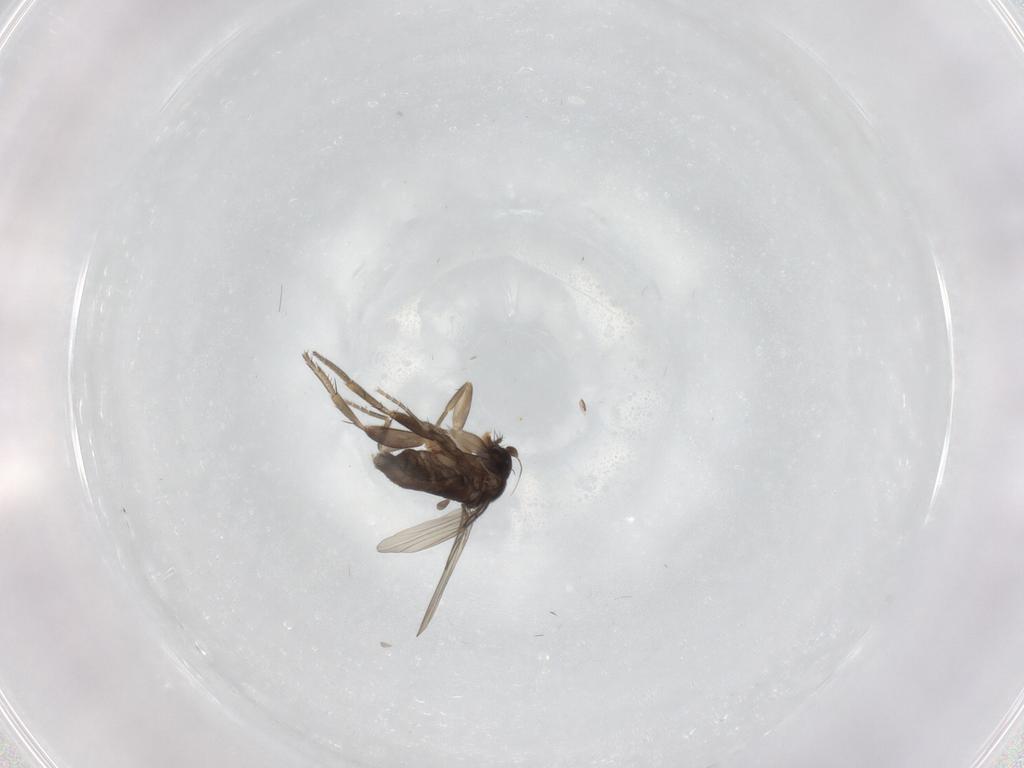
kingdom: Animalia
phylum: Arthropoda
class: Insecta
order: Diptera
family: Phoridae
